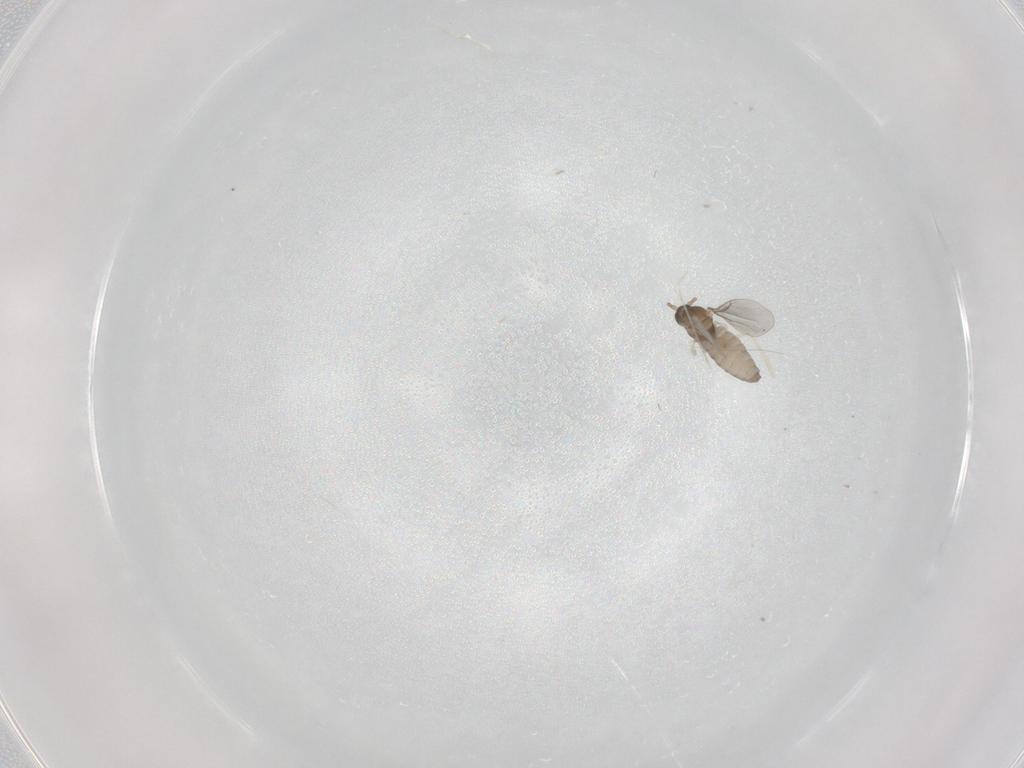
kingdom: Animalia
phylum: Arthropoda
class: Insecta
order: Diptera
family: Cecidomyiidae
